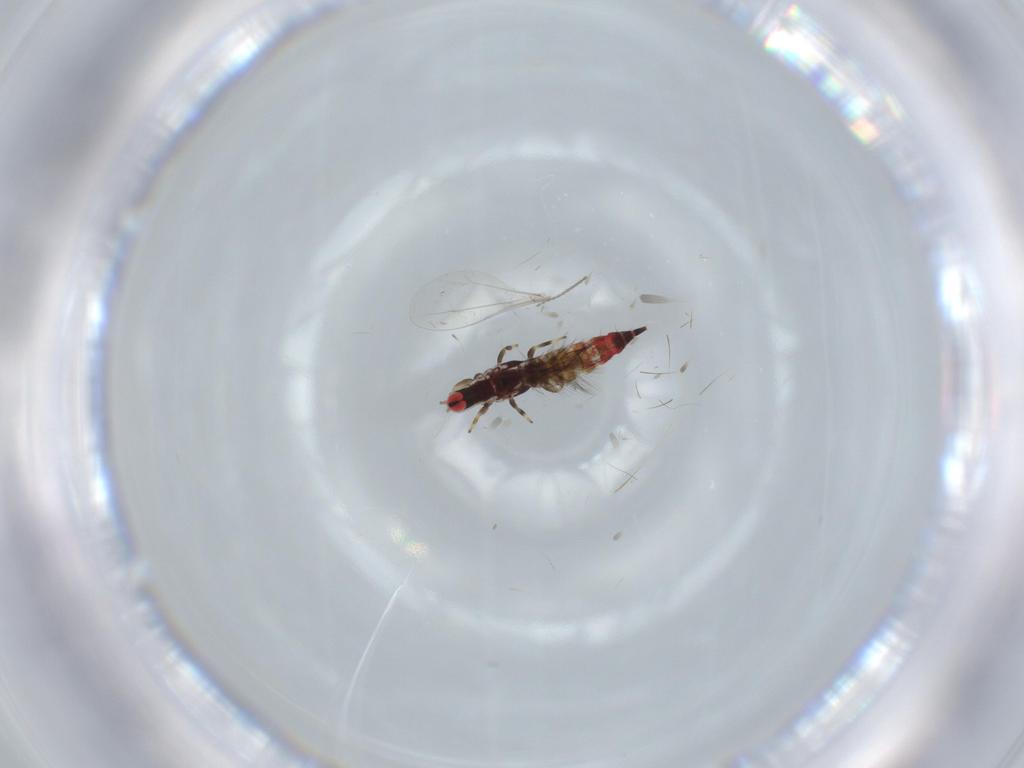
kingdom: Animalia
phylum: Arthropoda
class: Insecta
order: Thysanoptera
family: Phlaeothripidae
